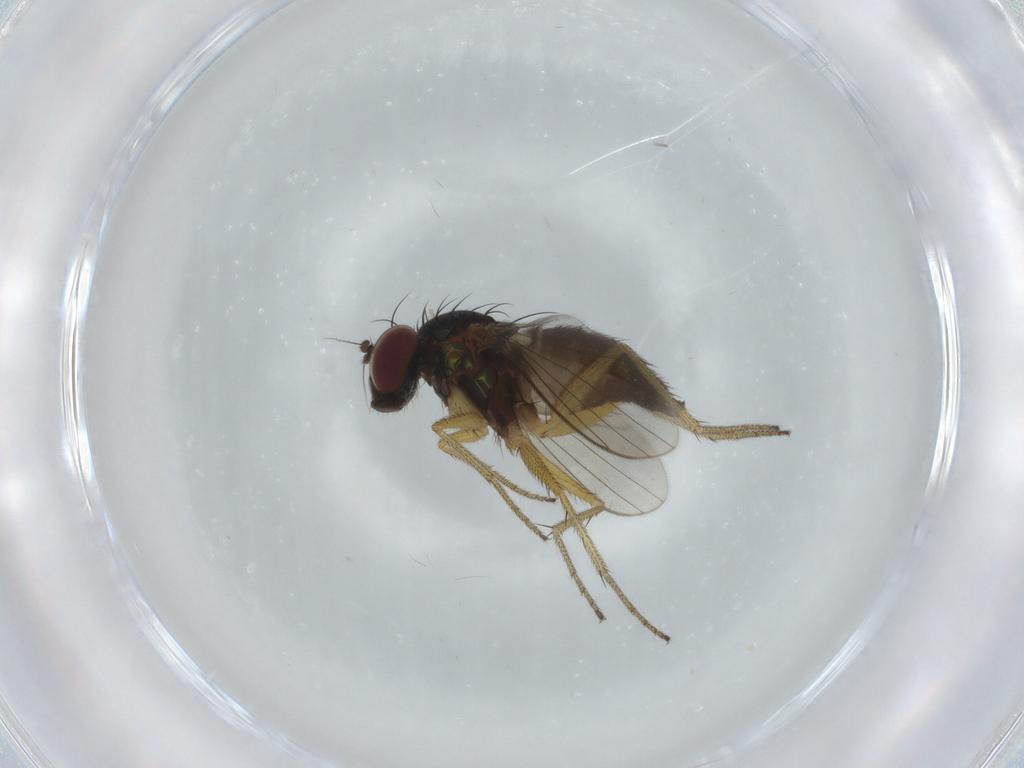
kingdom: Animalia
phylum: Arthropoda
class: Insecta
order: Diptera
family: Dolichopodidae
